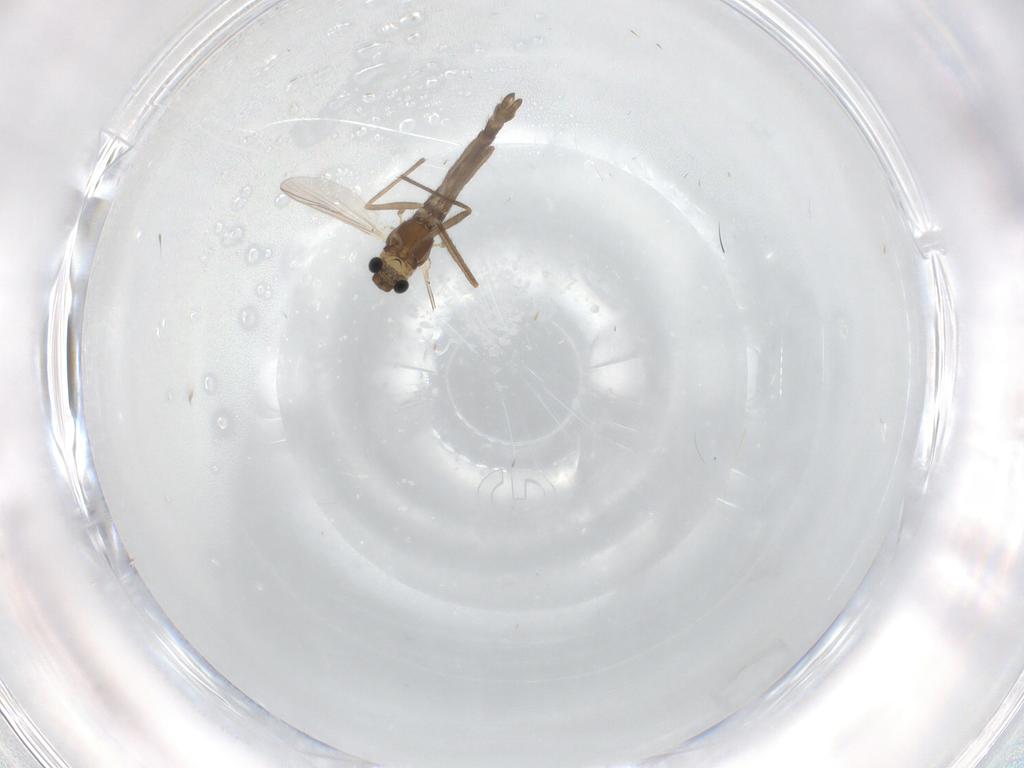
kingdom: Animalia
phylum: Arthropoda
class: Insecta
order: Diptera
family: Chironomidae
